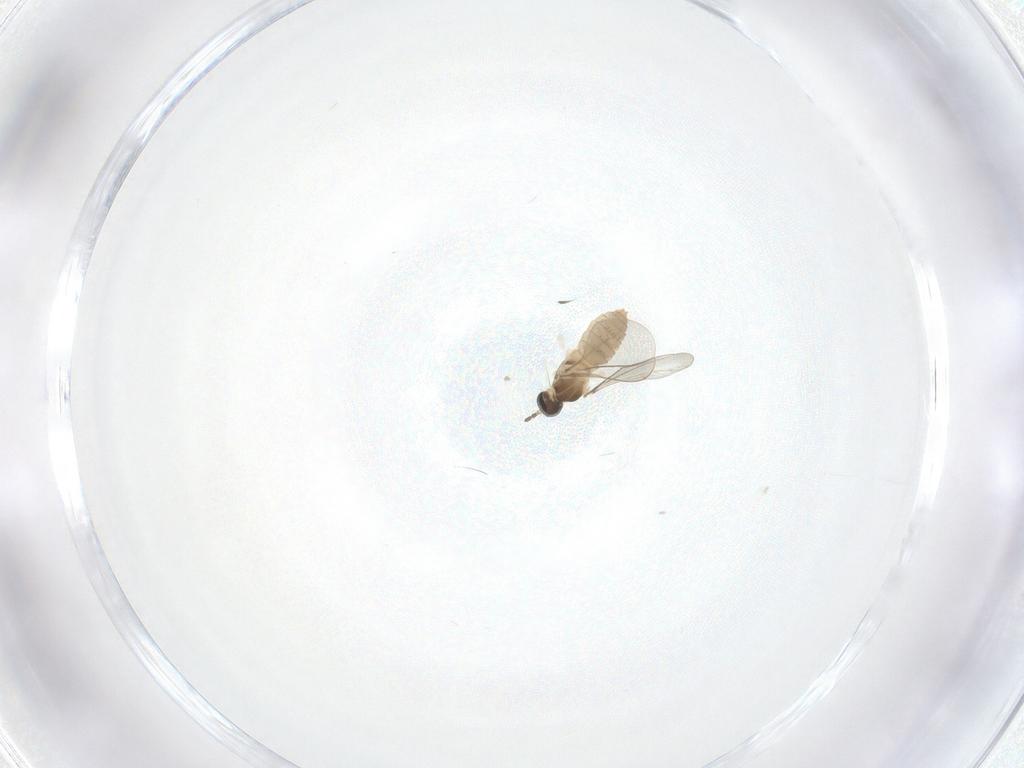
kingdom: Animalia
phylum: Arthropoda
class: Insecta
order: Diptera
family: Cecidomyiidae
